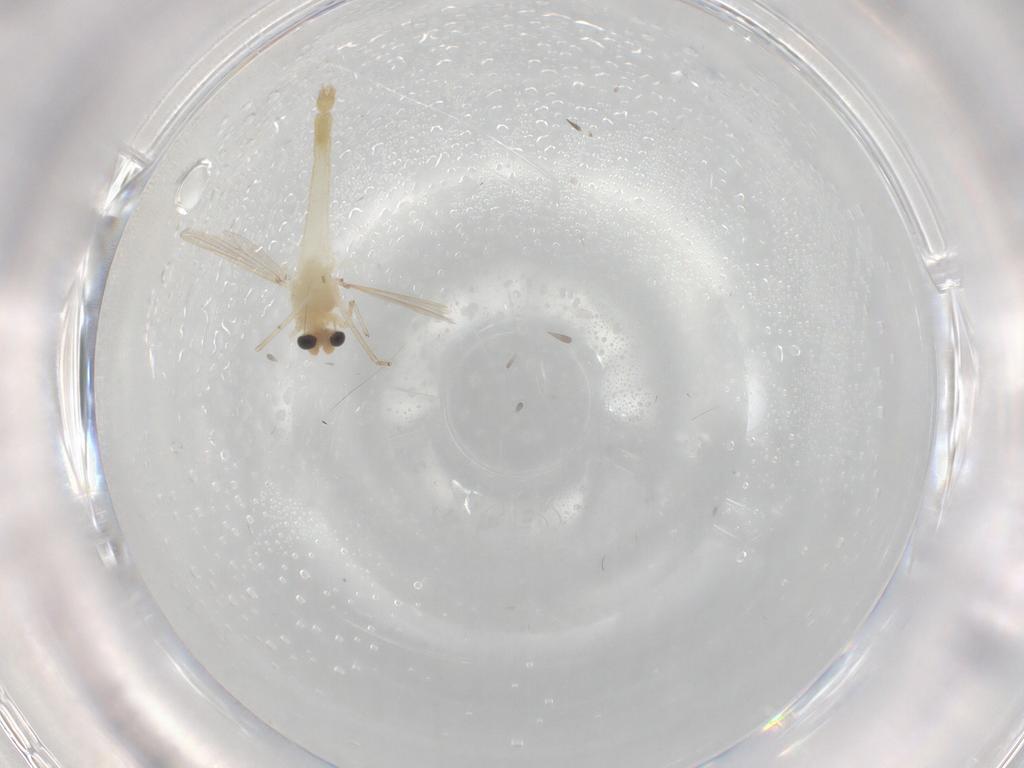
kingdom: Animalia
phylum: Arthropoda
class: Insecta
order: Diptera
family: Chironomidae
